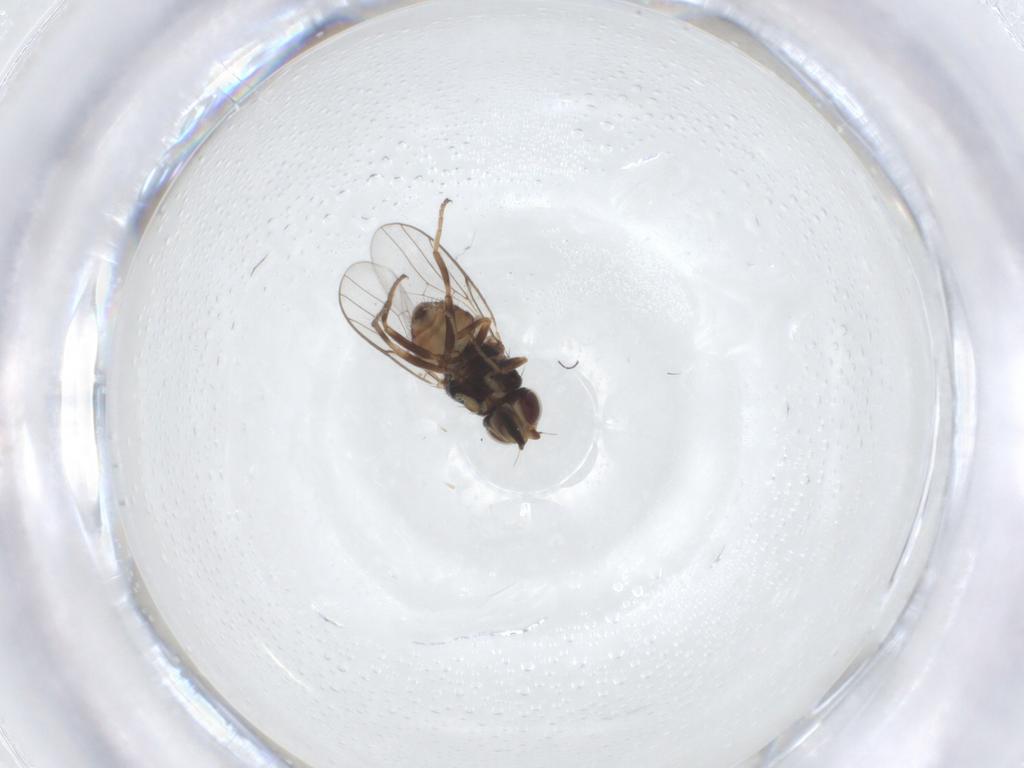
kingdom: Animalia
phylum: Arthropoda
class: Insecta
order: Diptera
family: Chloropidae
